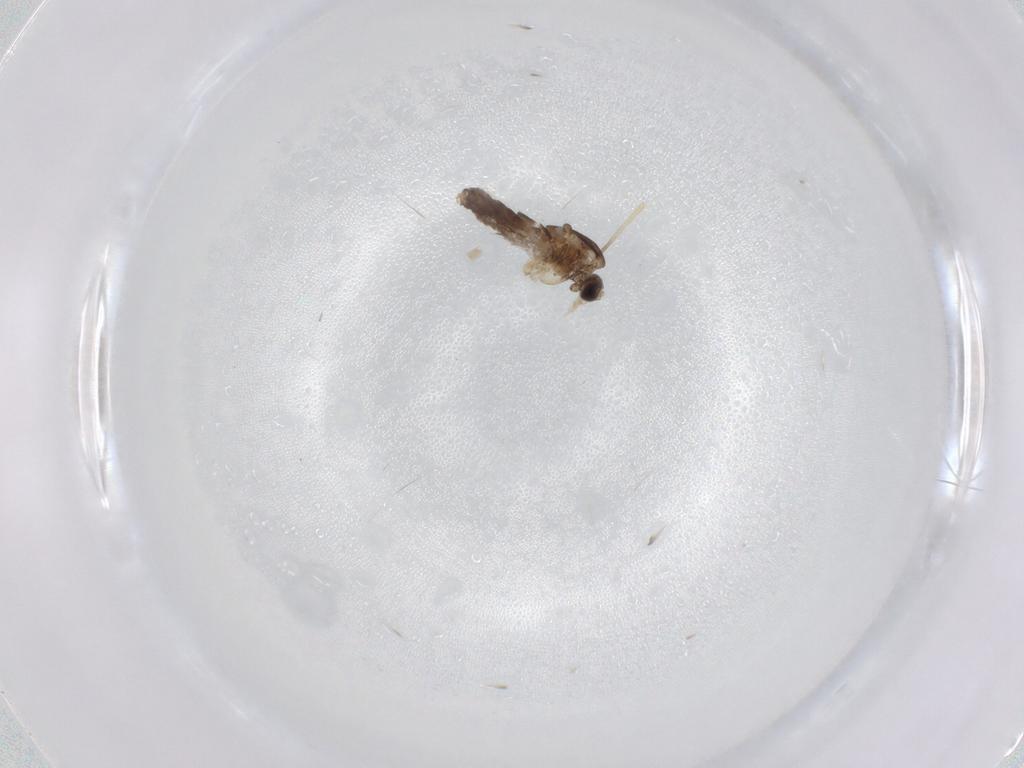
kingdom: Animalia
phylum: Arthropoda
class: Insecta
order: Diptera
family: Chironomidae
